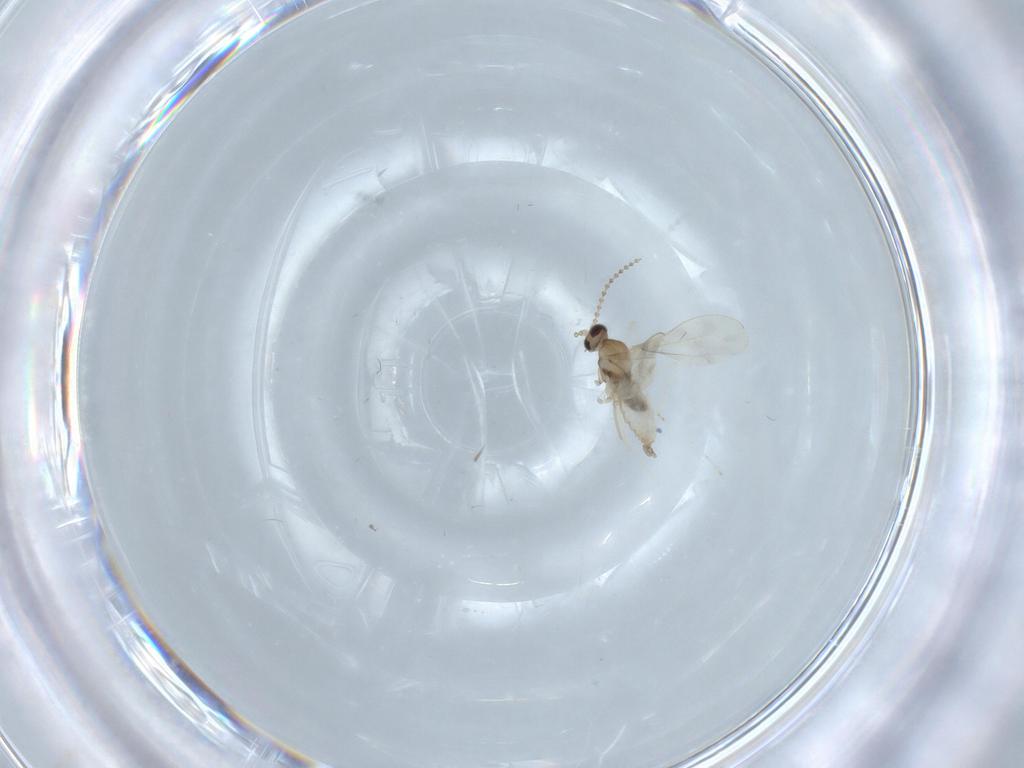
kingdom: Animalia
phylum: Arthropoda
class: Insecta
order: Diptera
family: Cecidomyiidae
